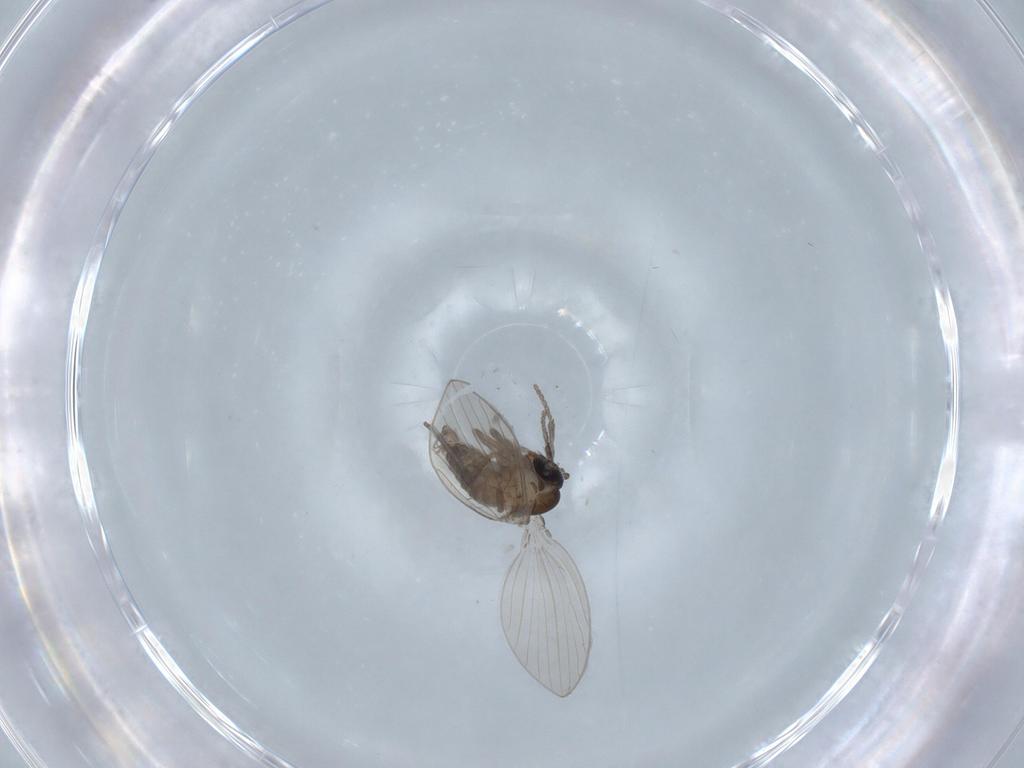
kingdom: Animalia
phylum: Arthropoda
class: Insecta
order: Diptera
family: Psychodidae
